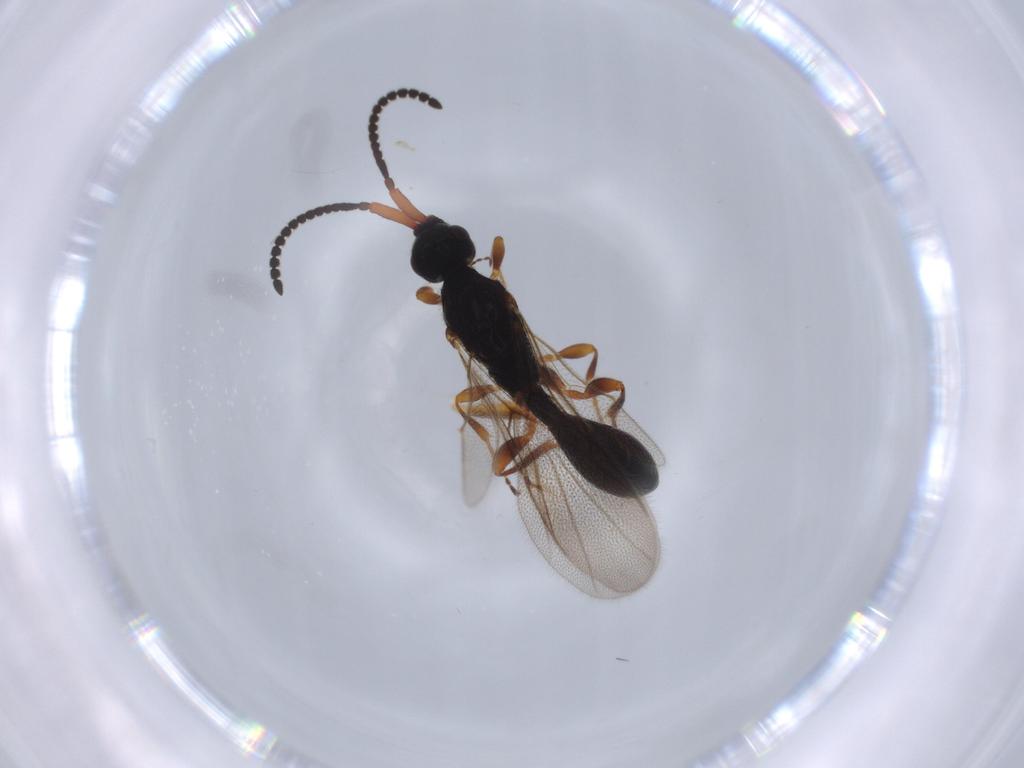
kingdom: Animalia
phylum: Arthropoda
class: Insecta
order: Hymenoptera
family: Ichneumonidae
